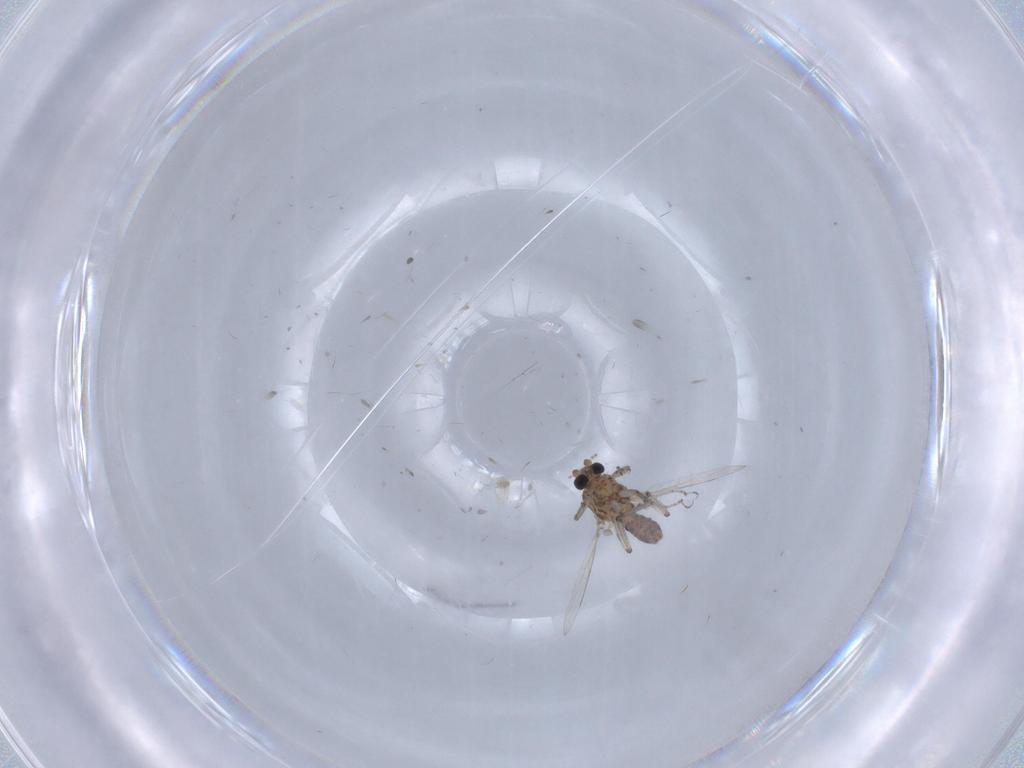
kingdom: Animalia
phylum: Arthropoda
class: Insecta
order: Diptera
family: Ceratopogonidae
